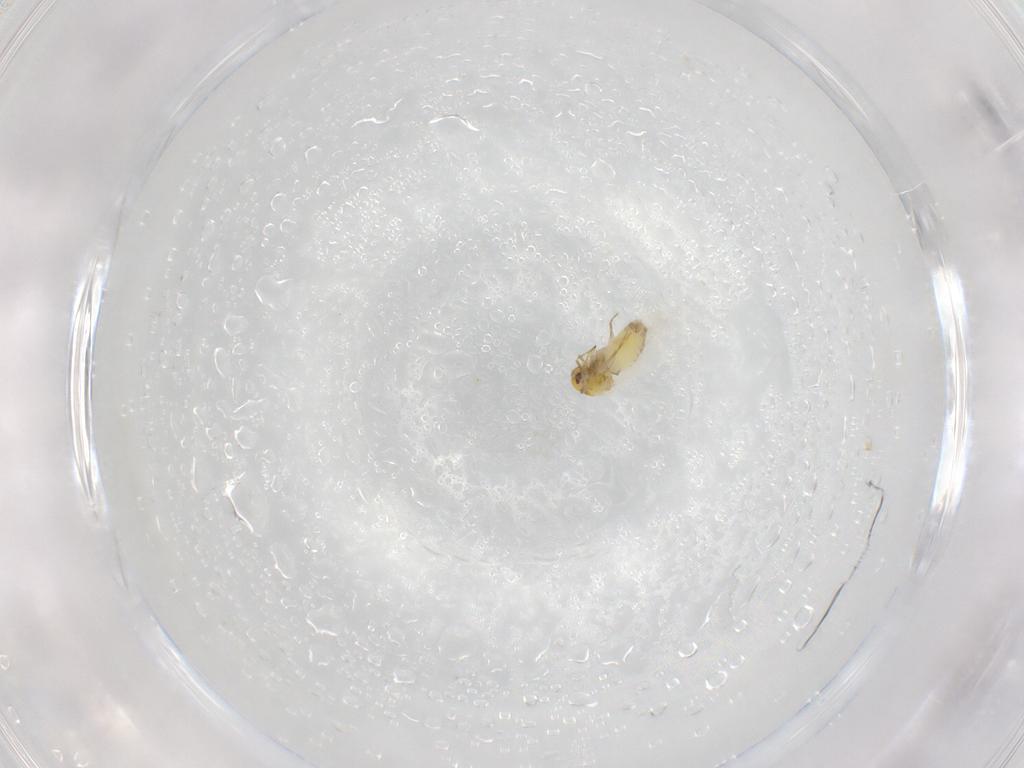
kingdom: Animalia
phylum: Arthropoda
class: Insecta
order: Hemiptera
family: Aleyrodidae
